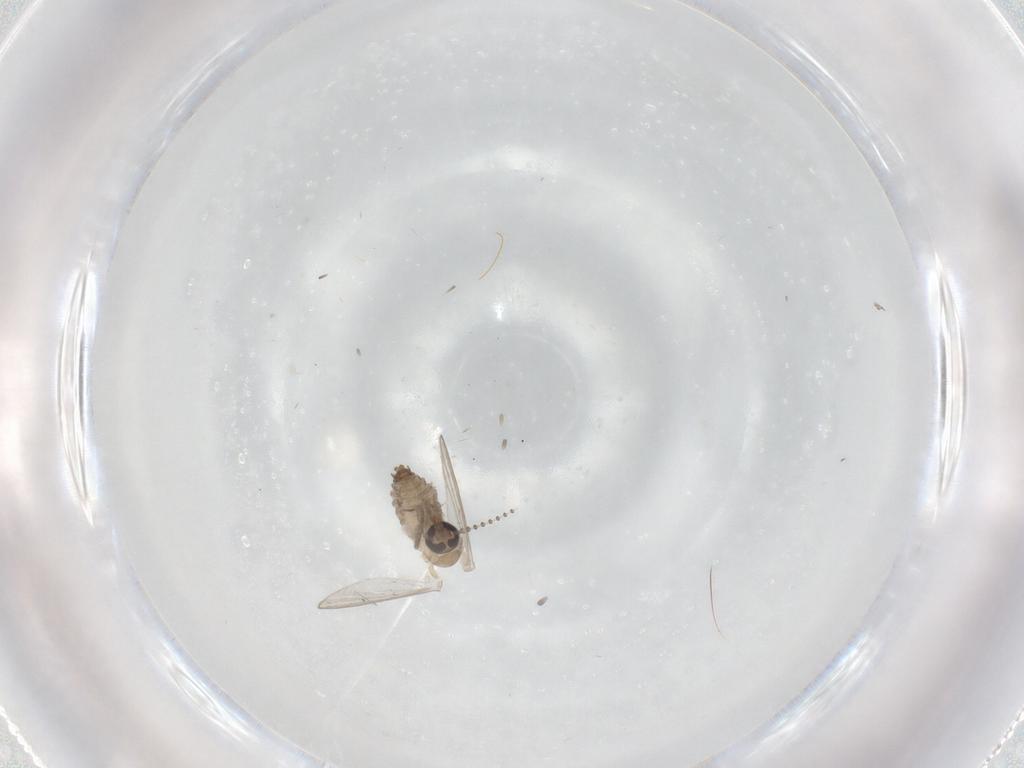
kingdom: Animalia
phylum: Arthropoda
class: Insecta
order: Diptera
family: Psychodidae
